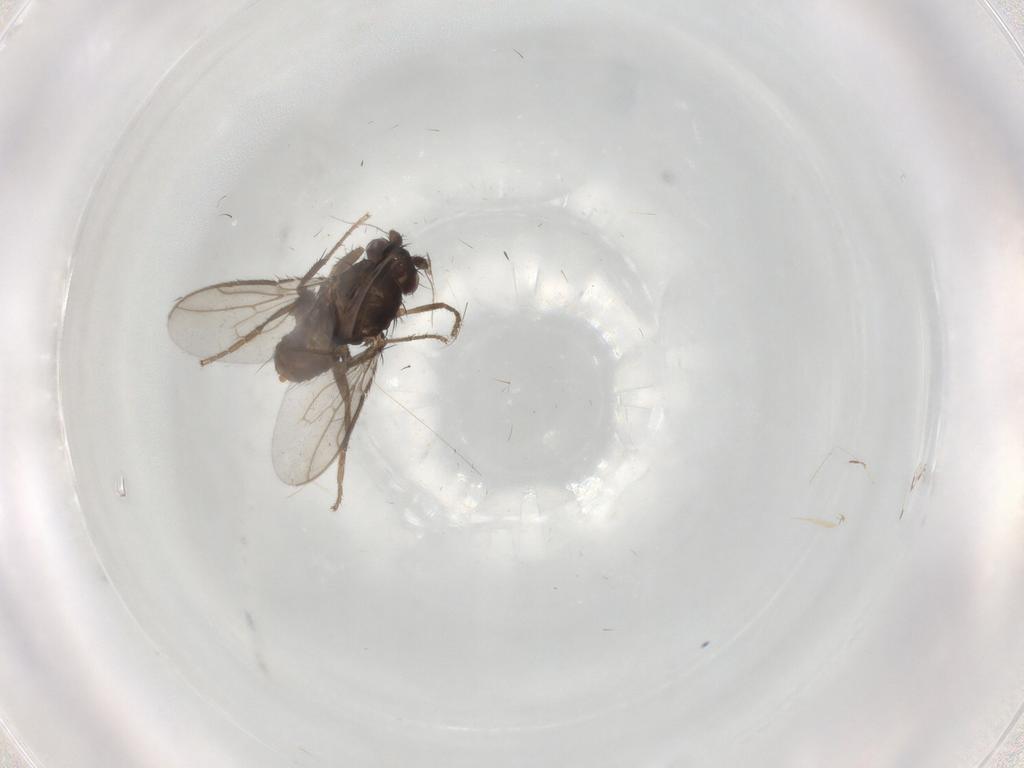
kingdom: Animalia
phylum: Arthropoda
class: Insecta
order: Diptera
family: Sphaeroceridae
